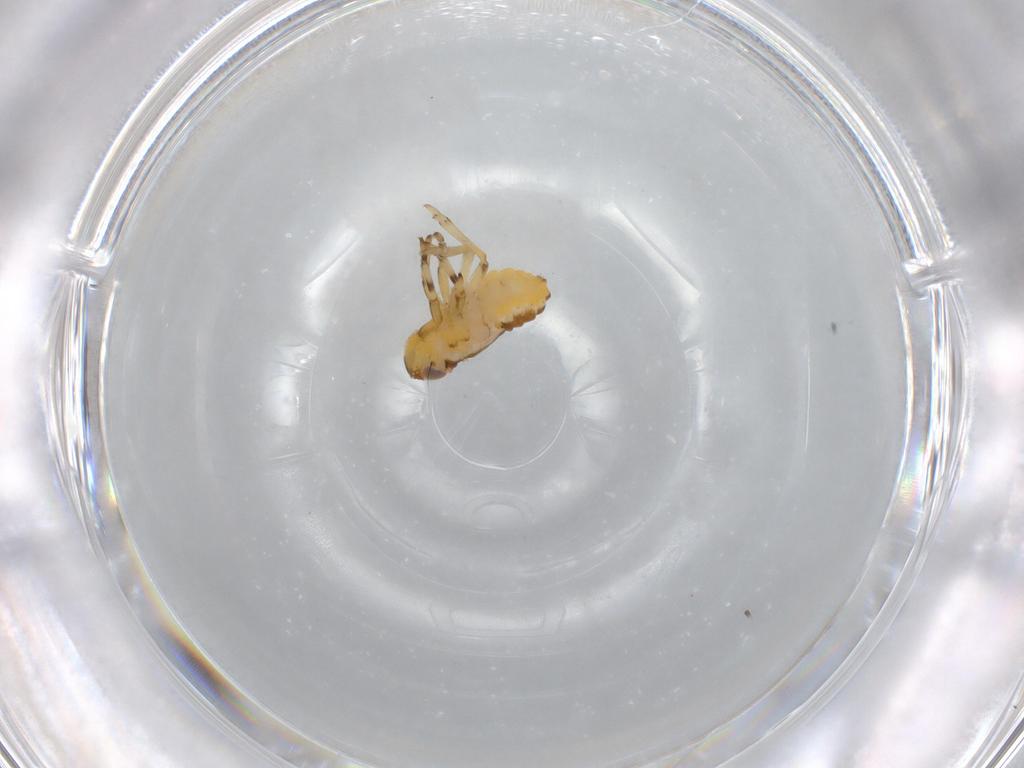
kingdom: Animalia
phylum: Arthropoda
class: Insecta
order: Hemiptera
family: Issidae
